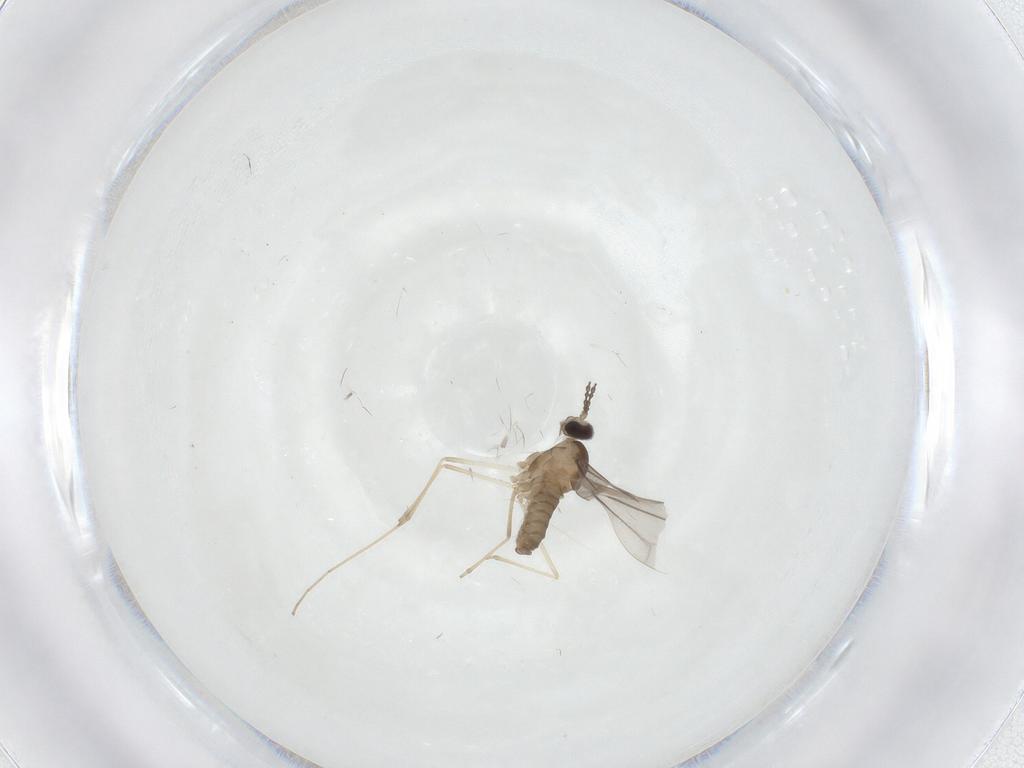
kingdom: Animalia
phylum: Arthropoda
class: Insecta
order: Diptera
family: Cecidomyiidae
